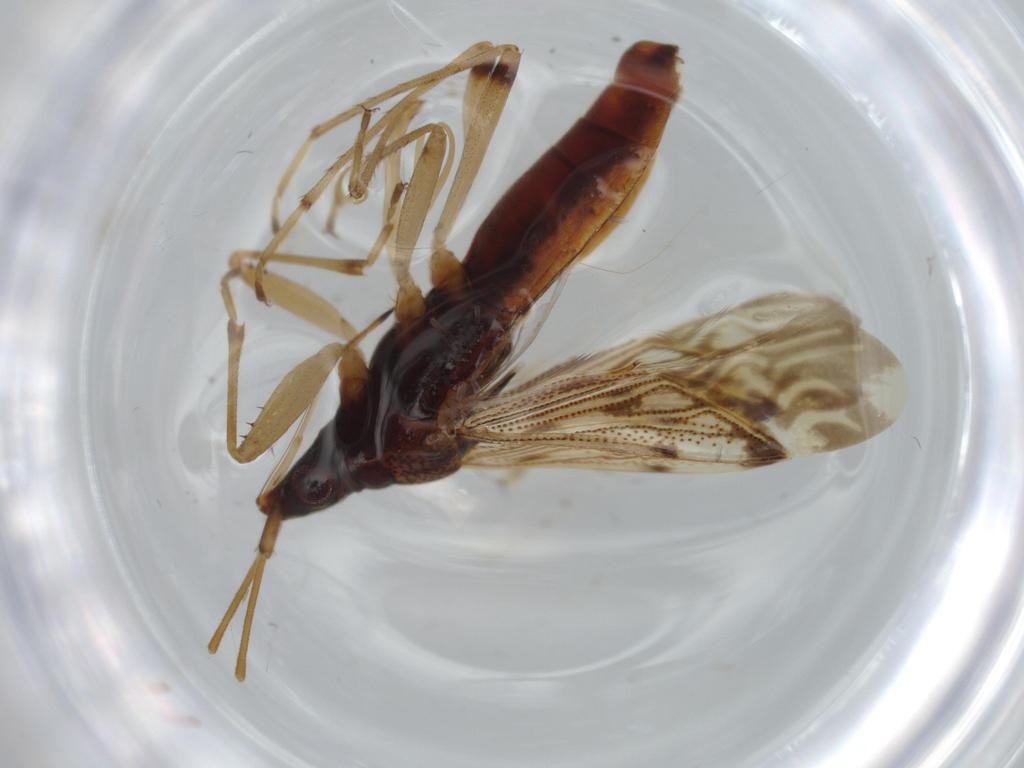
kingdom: Animalia
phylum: Arthropoda
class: Insecta
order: Hemiptera
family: Rhyparochromidae
